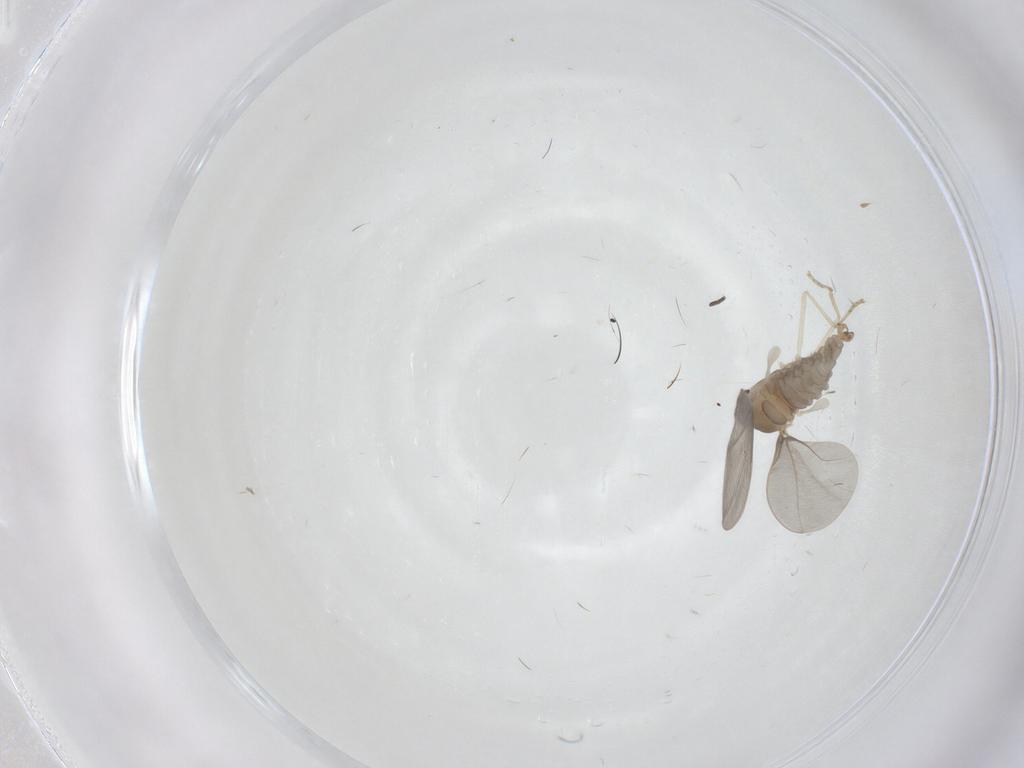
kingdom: Animalia
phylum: Arthropoda
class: Insecta
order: Diptera
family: Cecidomyiidae
